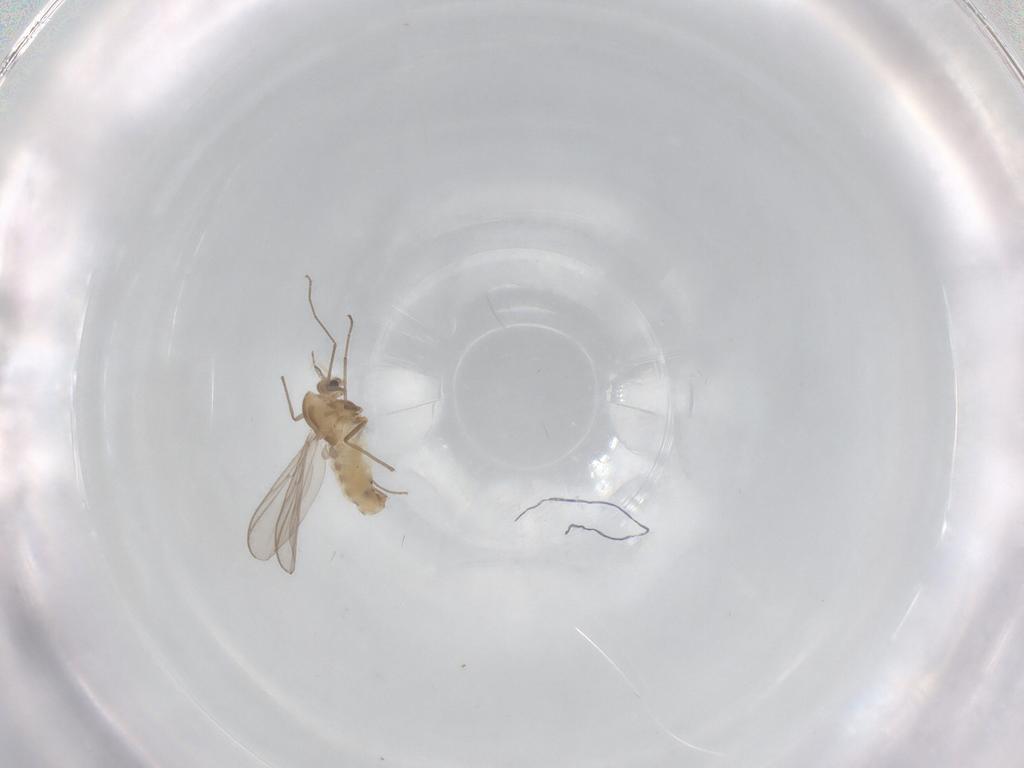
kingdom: Animalia
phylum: Arthropoda
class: Insecta
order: Diptera
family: Chironomidae
